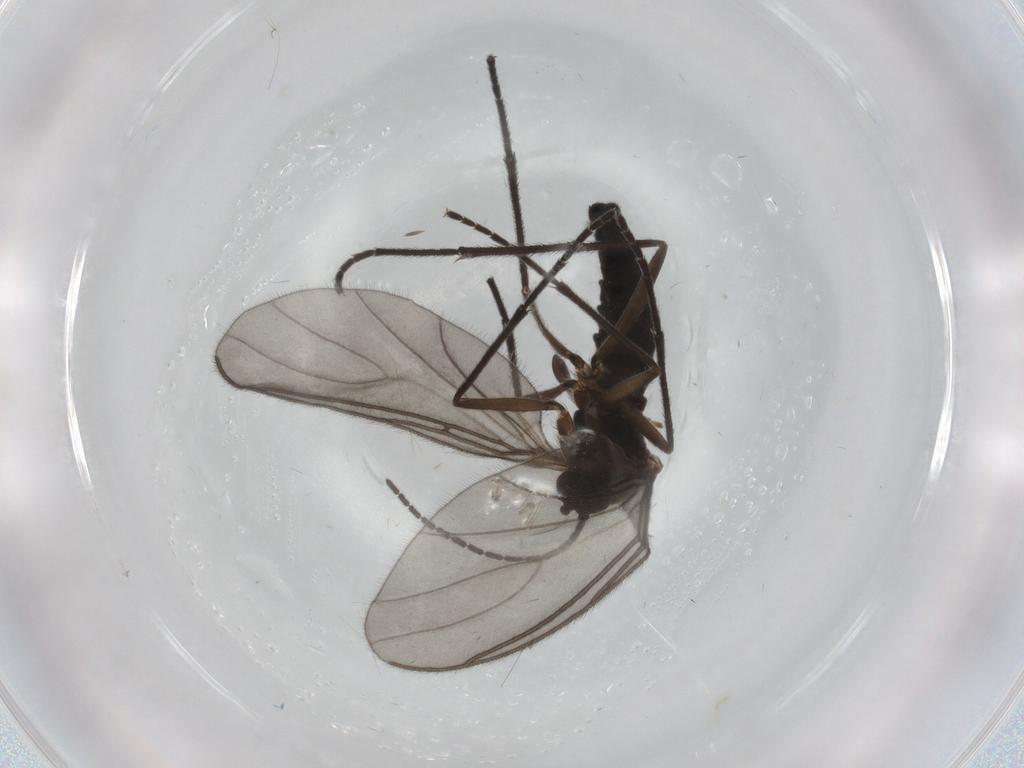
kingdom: Animalia
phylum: Arthropoda
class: Insecta
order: Diptera
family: Sciaridae
